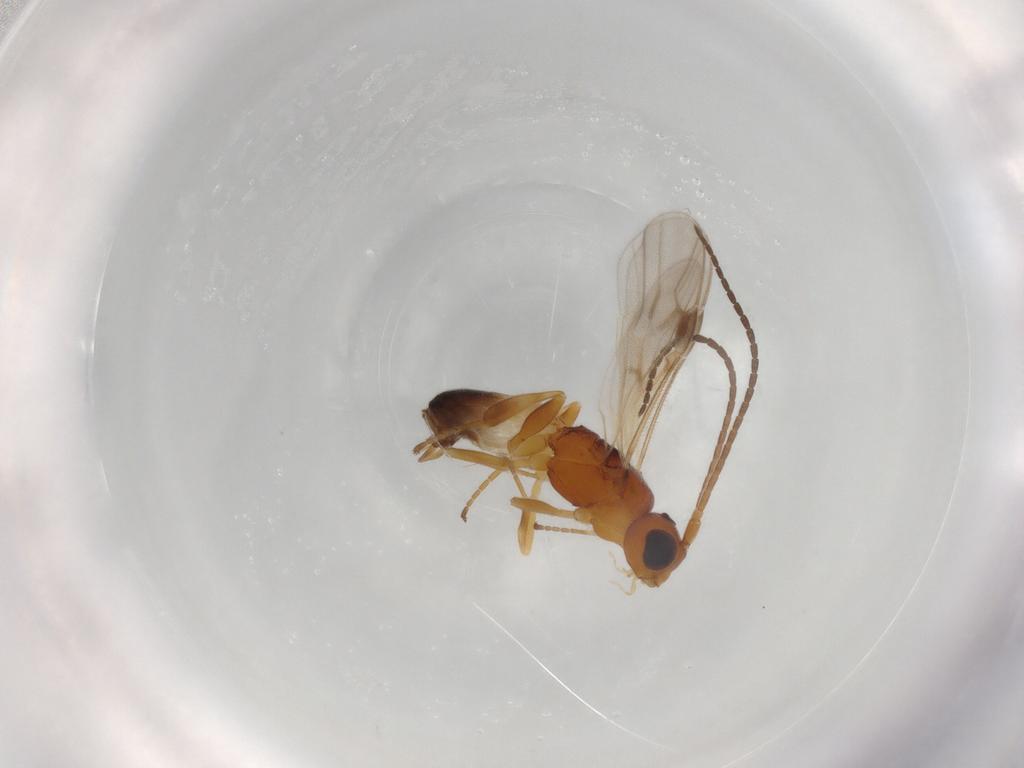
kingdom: Animalia
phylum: Arthropoda
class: Insecta
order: Hymenoptera
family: Braconidae
